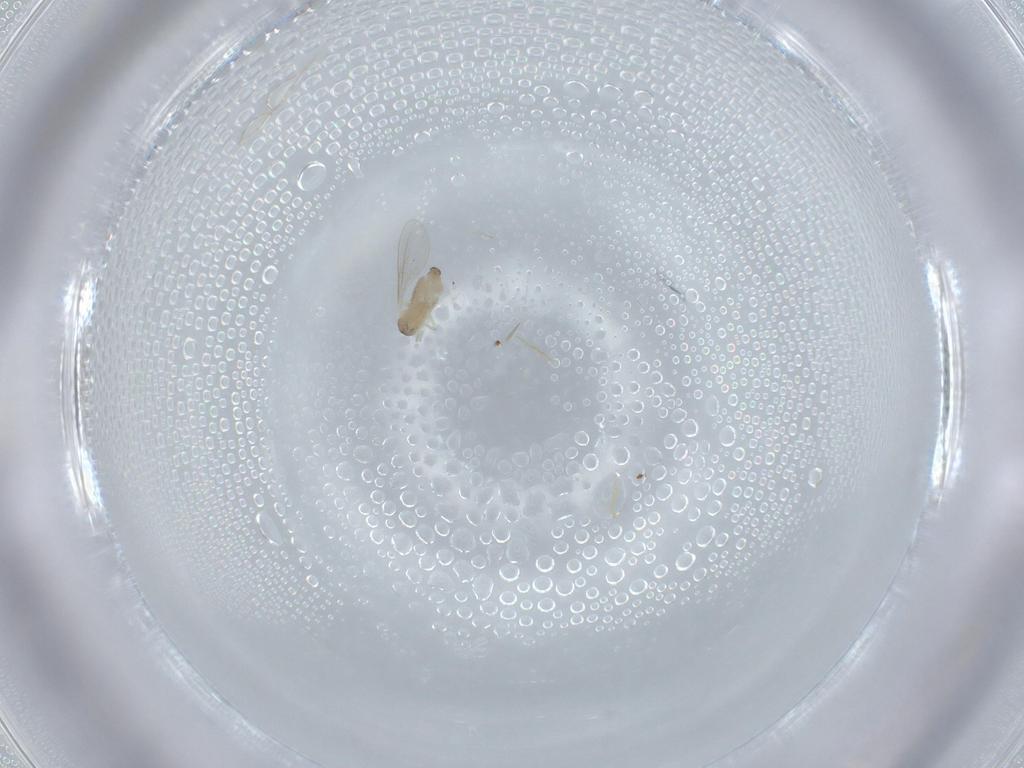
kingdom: Animalia
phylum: Arthropoda
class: Insecta
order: Diptera
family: Cecidomyiidae
